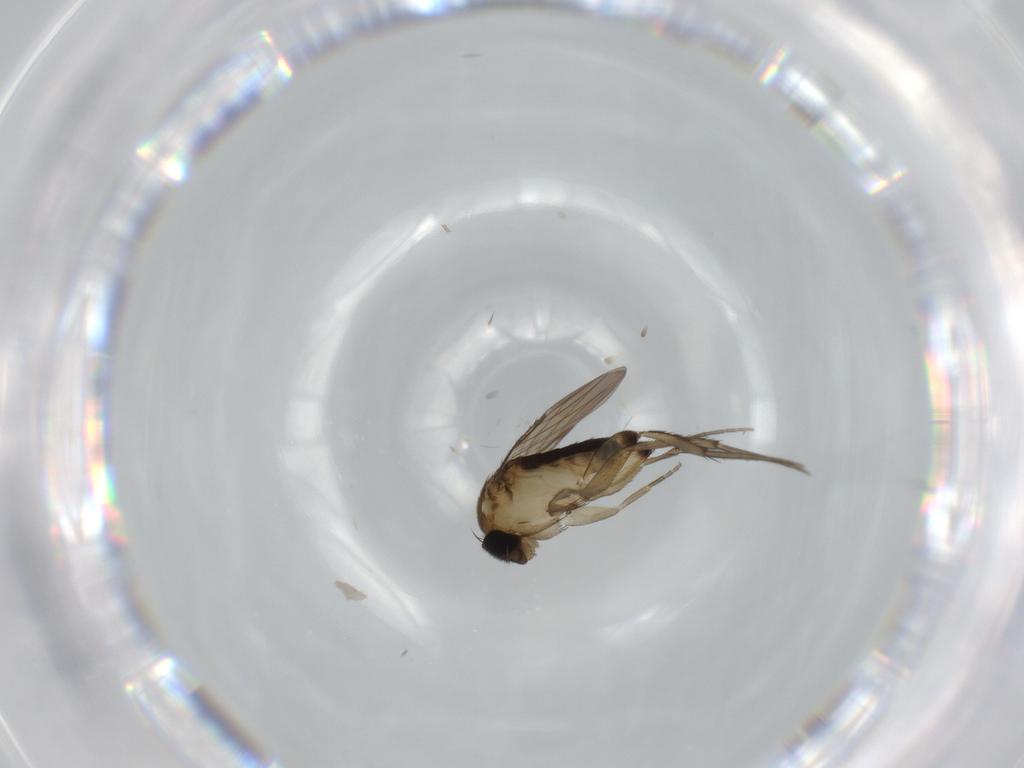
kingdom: Animalia
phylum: Arthropoda
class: Insecta
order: Diptera
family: Phoridae
